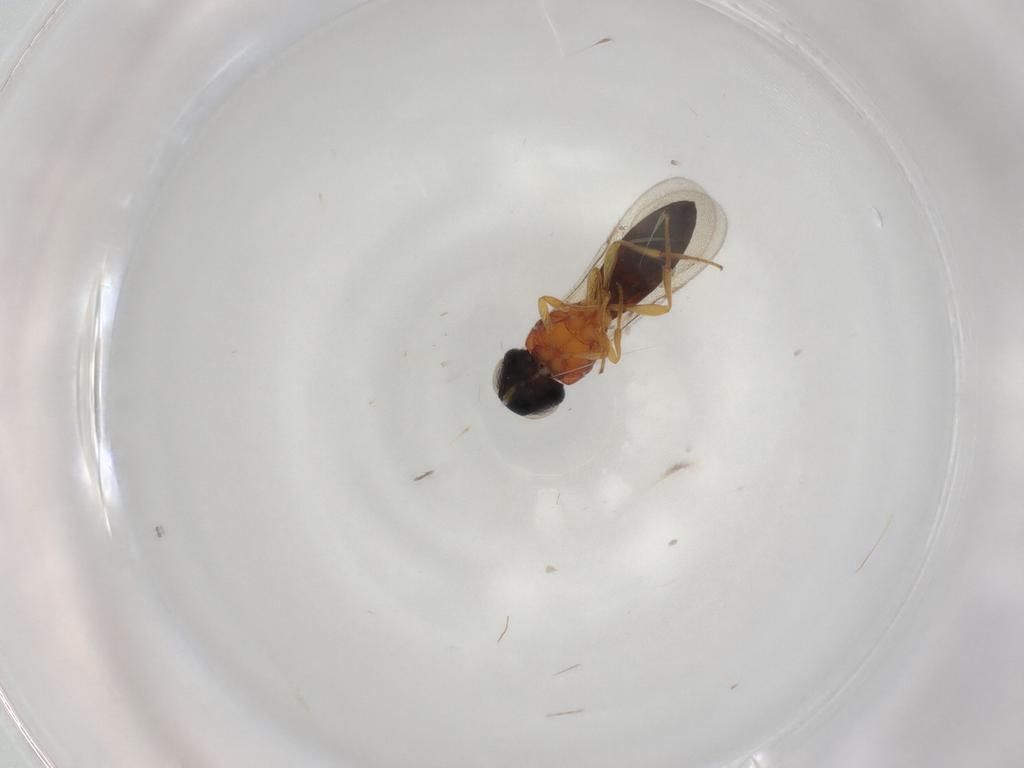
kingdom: Animalia
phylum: Arthropoda
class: Insecta
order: Hymenoptera
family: Scelionidae
